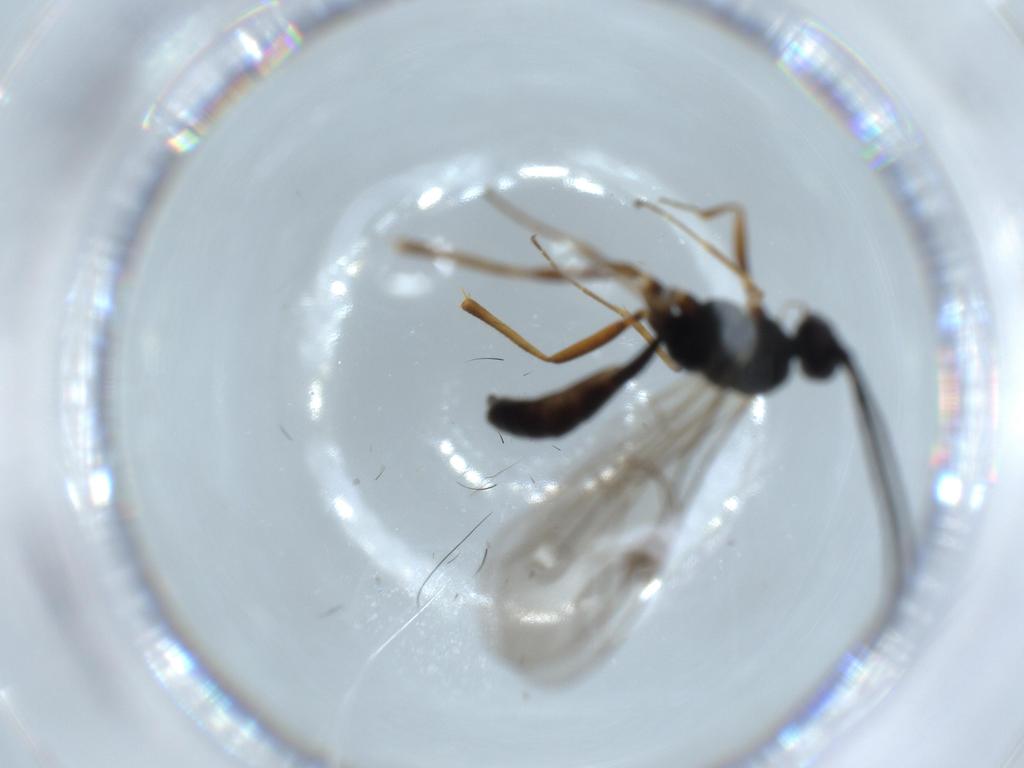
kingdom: Animalia
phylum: Arthropoda
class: Insecta
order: Hymenoptera
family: Ichneumonidae
